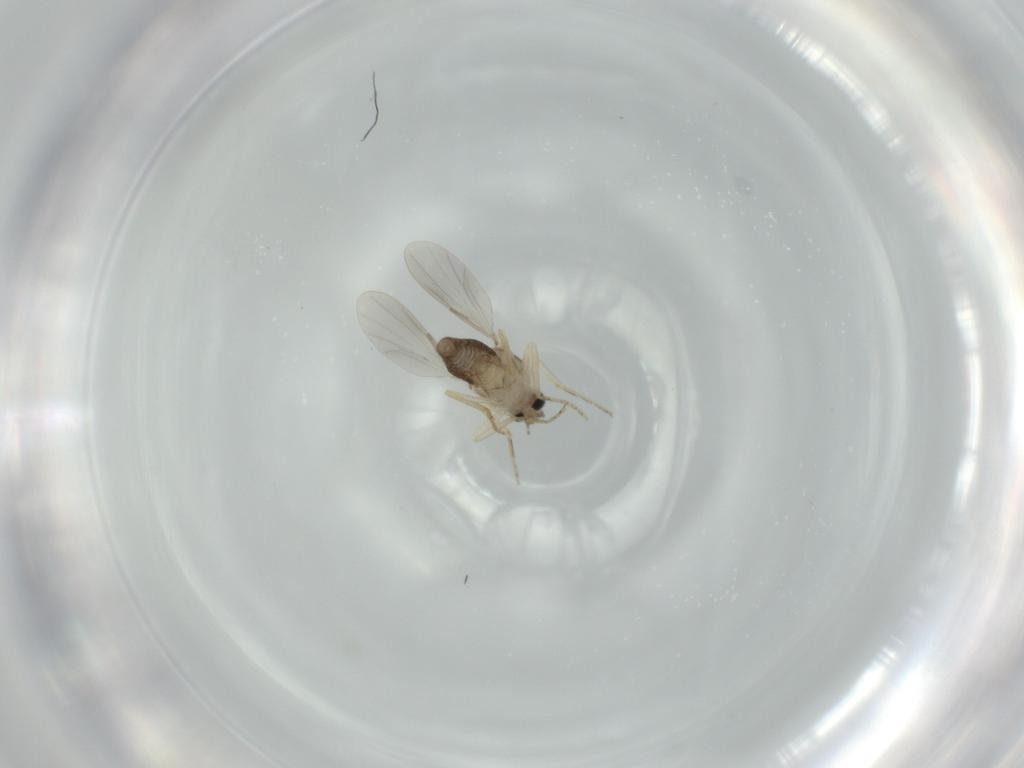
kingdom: Animalia
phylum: Arthropoda
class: Insecta
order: Diptera
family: Ceratopogonidae
